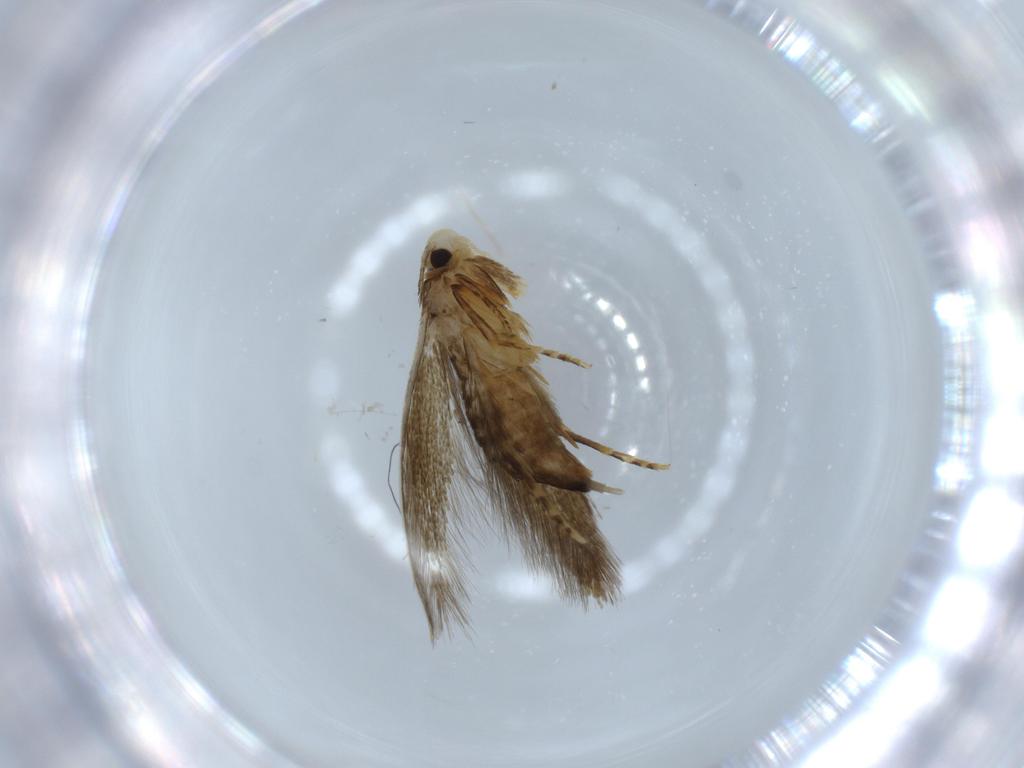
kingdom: Animalia
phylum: Arthropoda
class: Insecta
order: Lepidoptera
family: Tineidae
